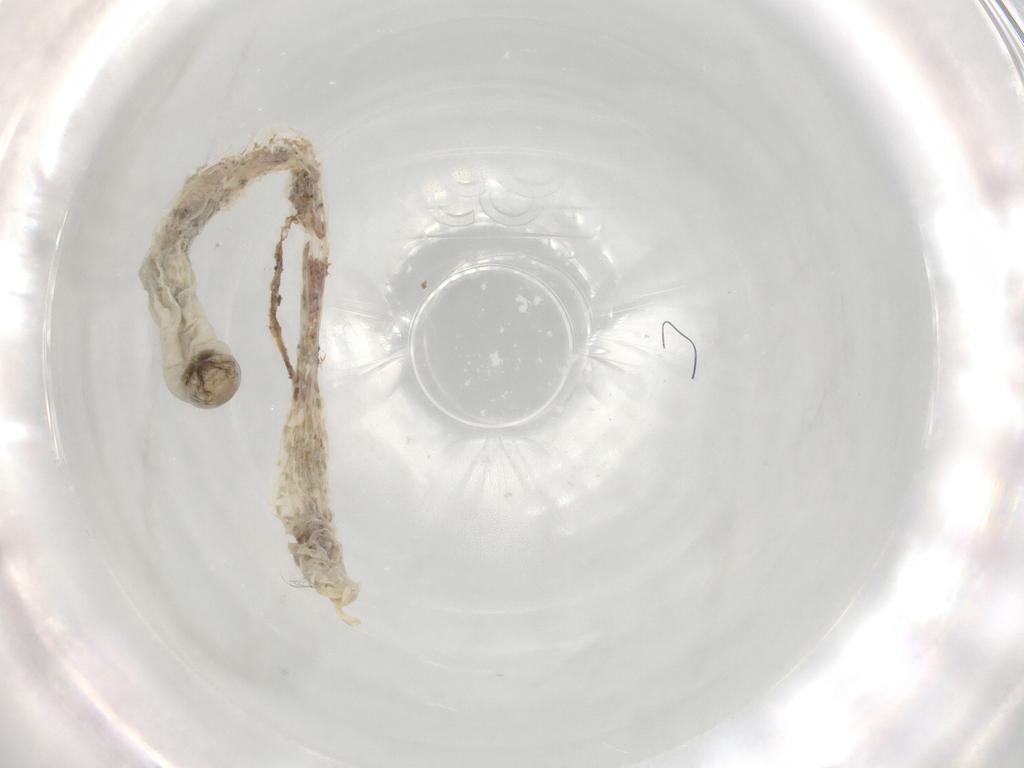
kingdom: Animalia
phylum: Arthropoda
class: Insecta
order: Diptera
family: Chironomidae
